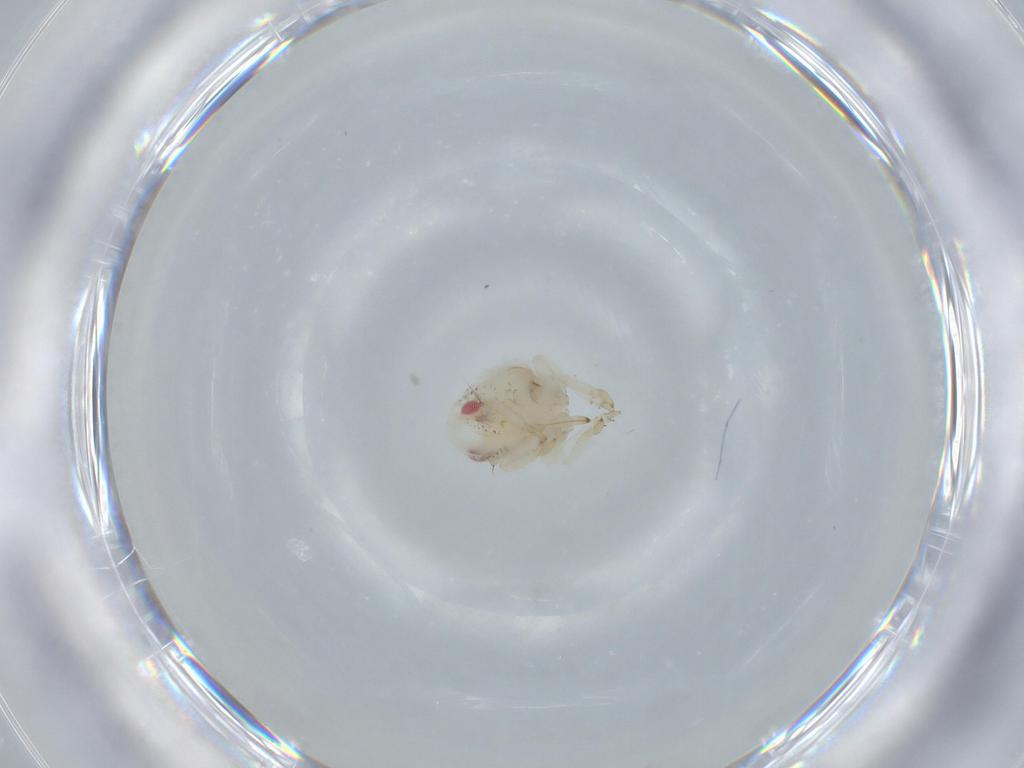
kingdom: Animalia
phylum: Arthropoda
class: Insecta
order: Hemiptera
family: Acanaloniidae
